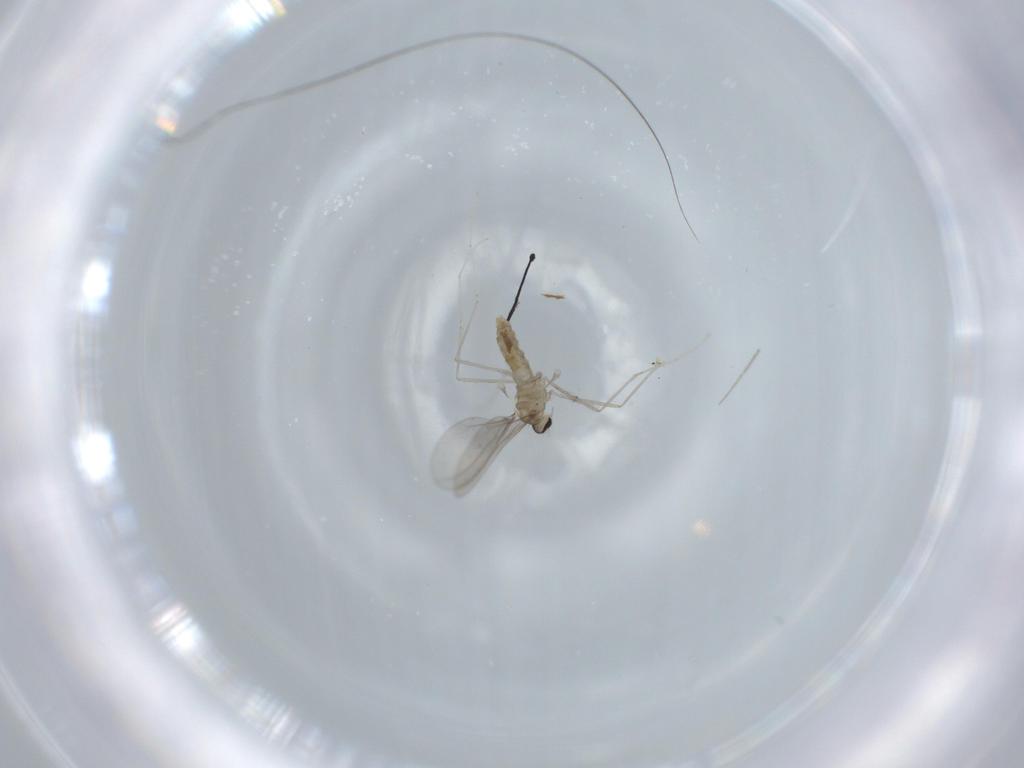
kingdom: Animalia
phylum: Arthropoda
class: Insecta
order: Diptera
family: Cecidomyiidae
